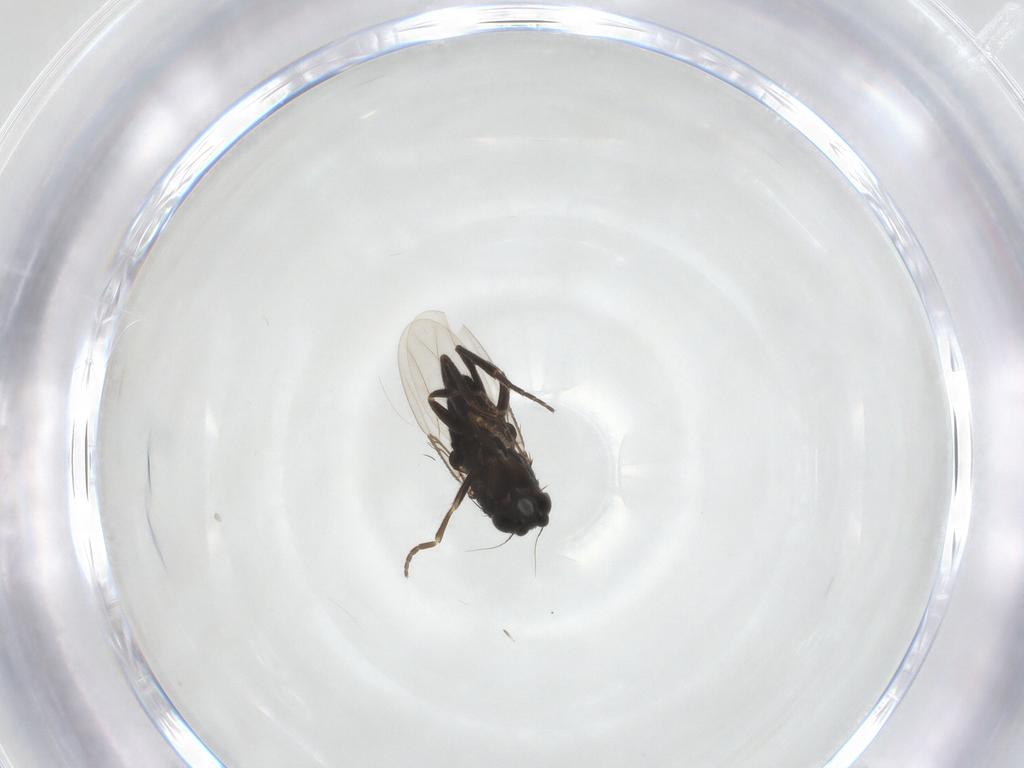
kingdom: Animalia
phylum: Arthropoda
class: Insecta
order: Diptera
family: Phoridae
